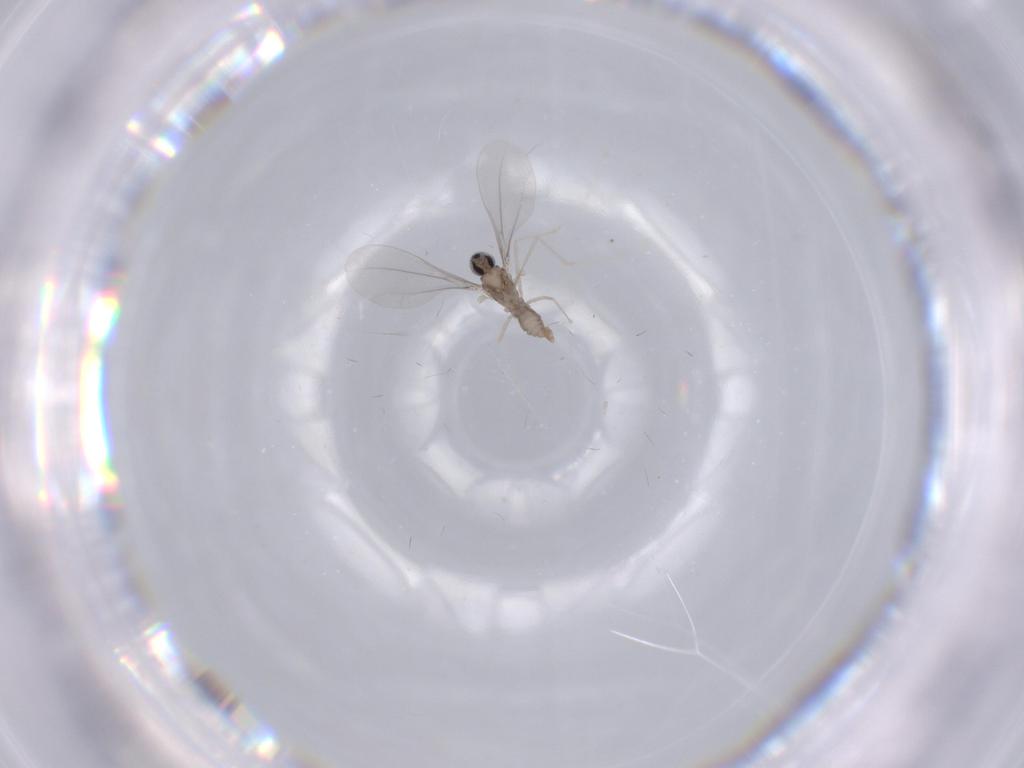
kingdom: Animalia
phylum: Arthropoda
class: Insecta
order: Diptera
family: Cecidomyiidae
